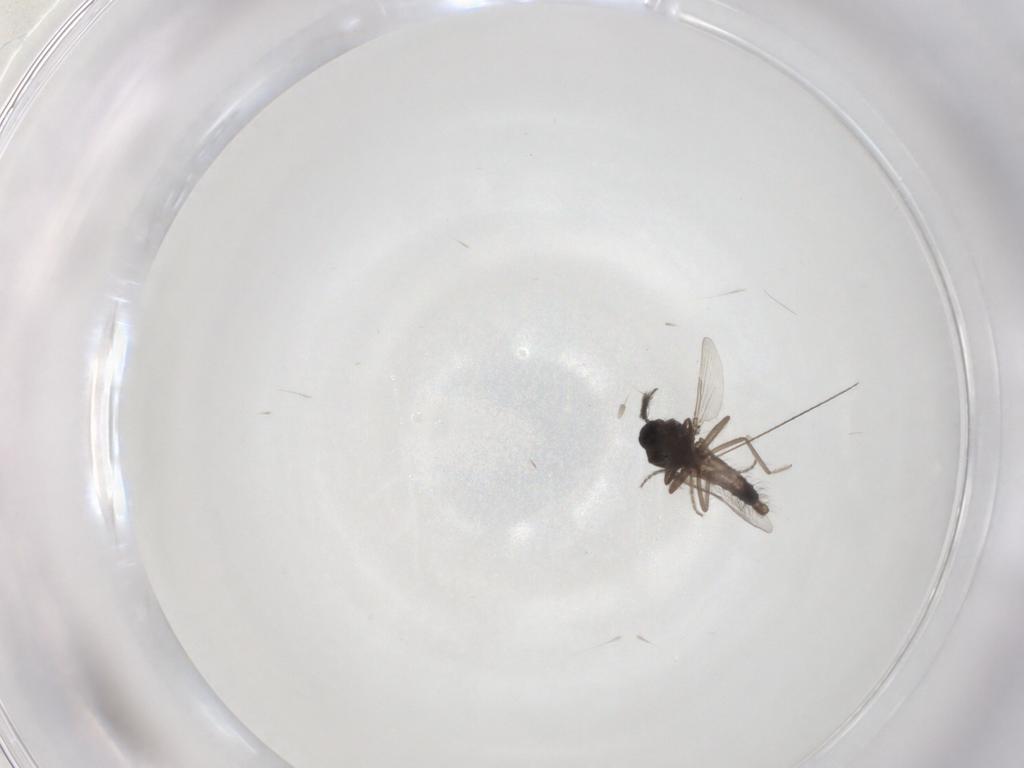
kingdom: Animalia
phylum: Arthropoda
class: Insecta
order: Diptera
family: Ceratopogonidae
